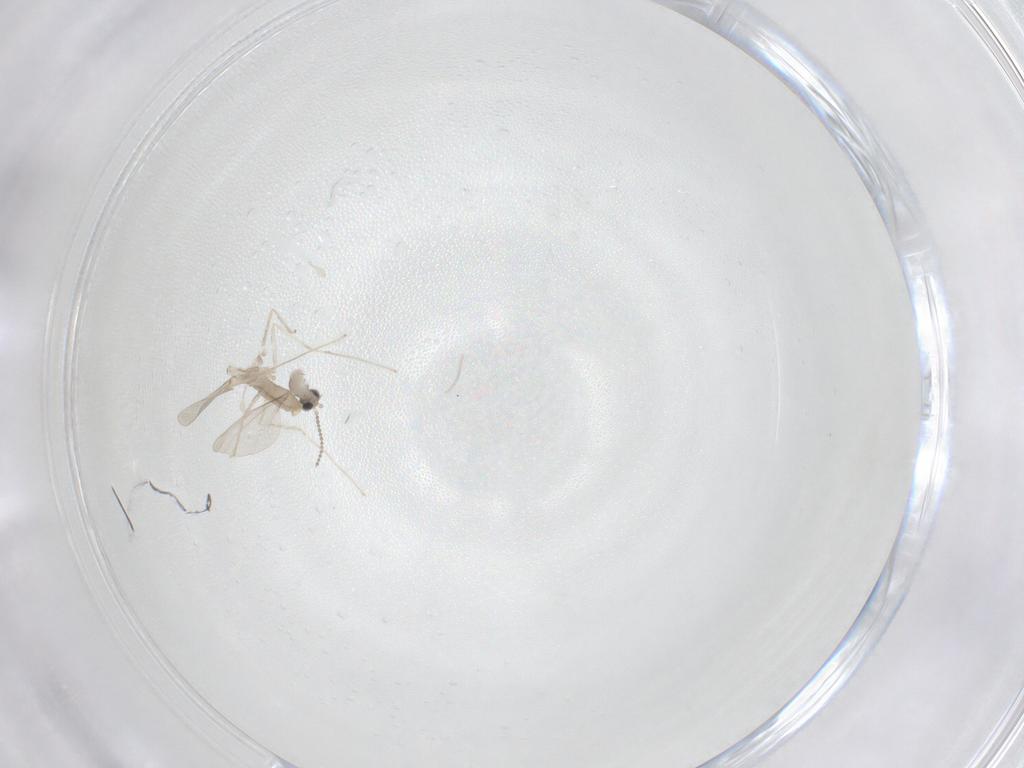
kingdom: Animalia
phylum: Arthropoda
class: Insecta
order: Diptera
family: Cecidomyiidae
